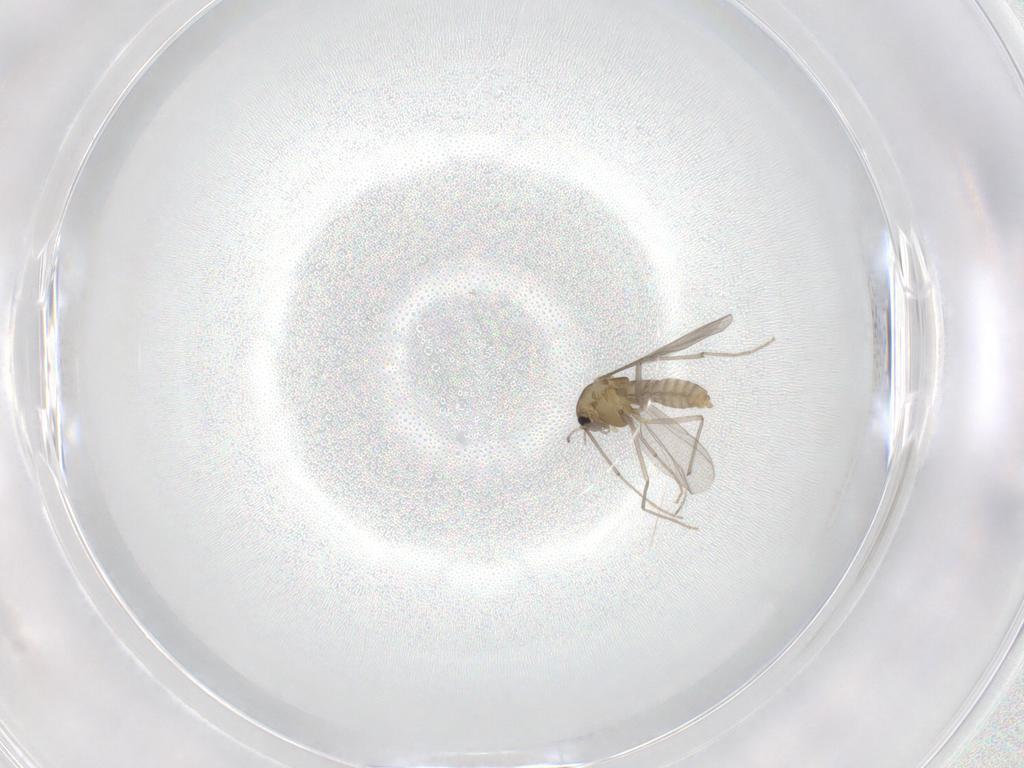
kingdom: Animalia
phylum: Arthropoda
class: Insecta
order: Diptera
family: Chironomidae
